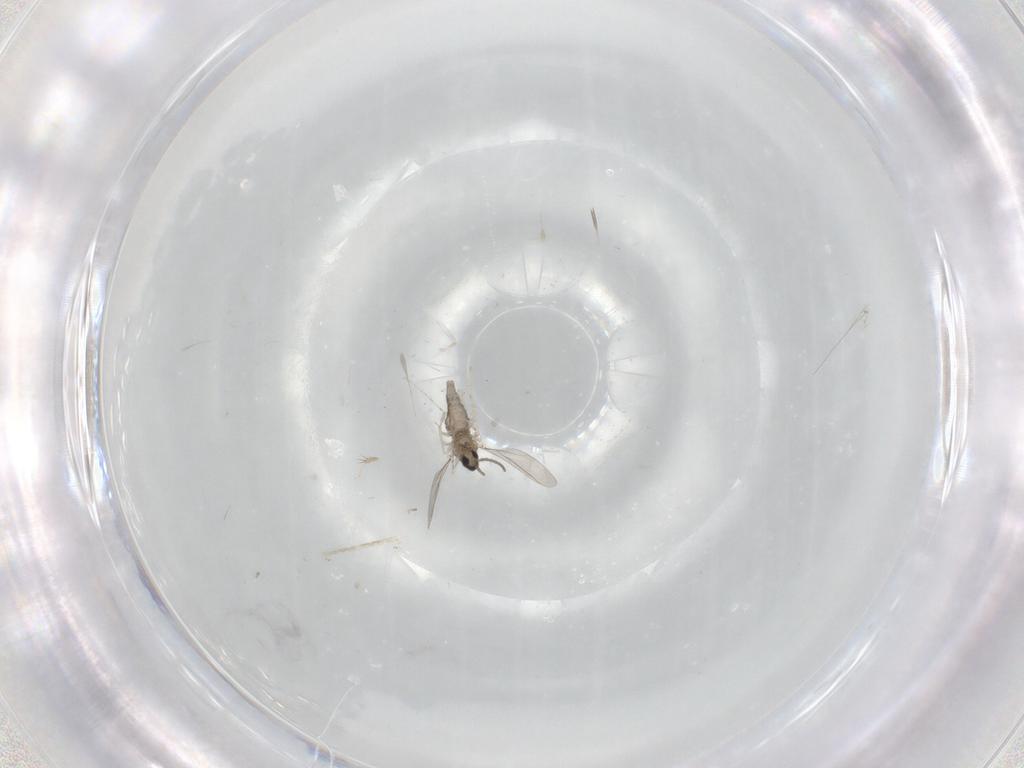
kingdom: Animalia
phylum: Arthropoda
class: Insecta
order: Diptera
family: Cecidomyiidae
